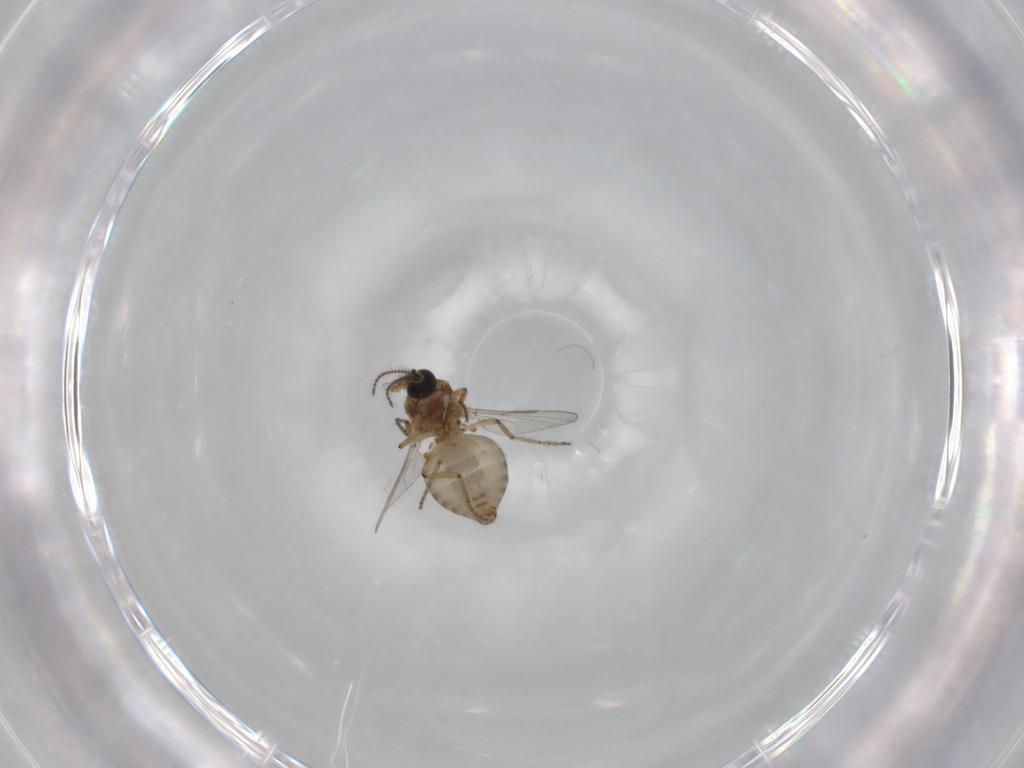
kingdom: Animalia
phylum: Arthropoda
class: Insecta
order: Diptera
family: Ceratopogonidae
